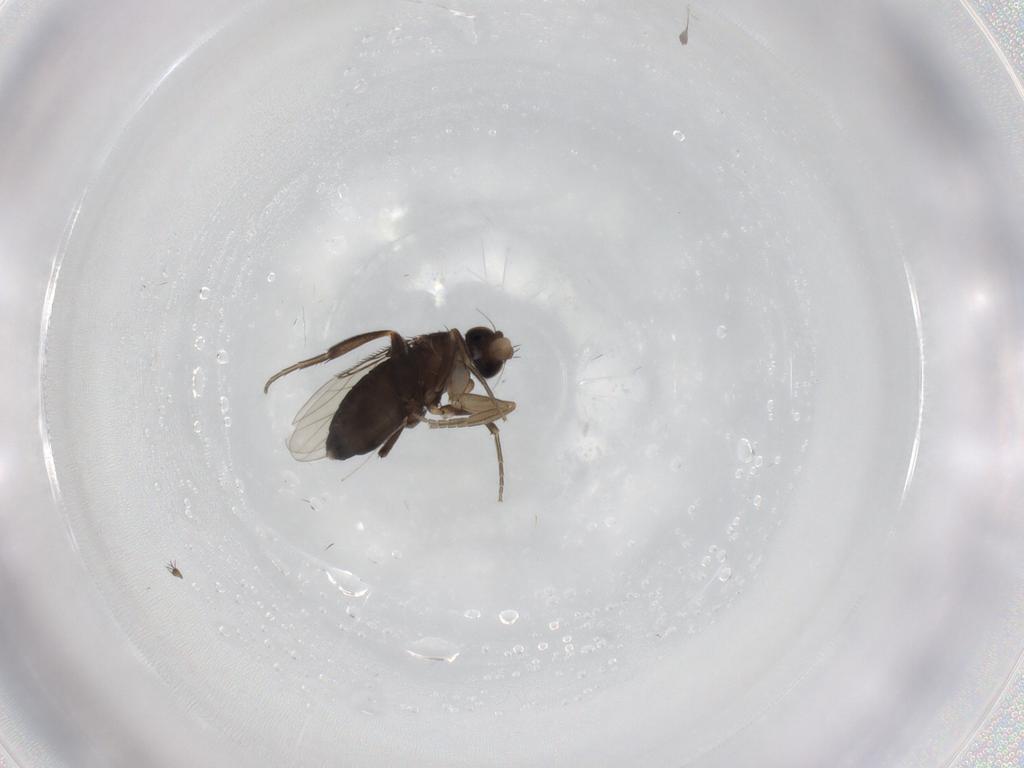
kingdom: Animalia
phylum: Arthropoda
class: Insecta
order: Diptera
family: Phoridae
